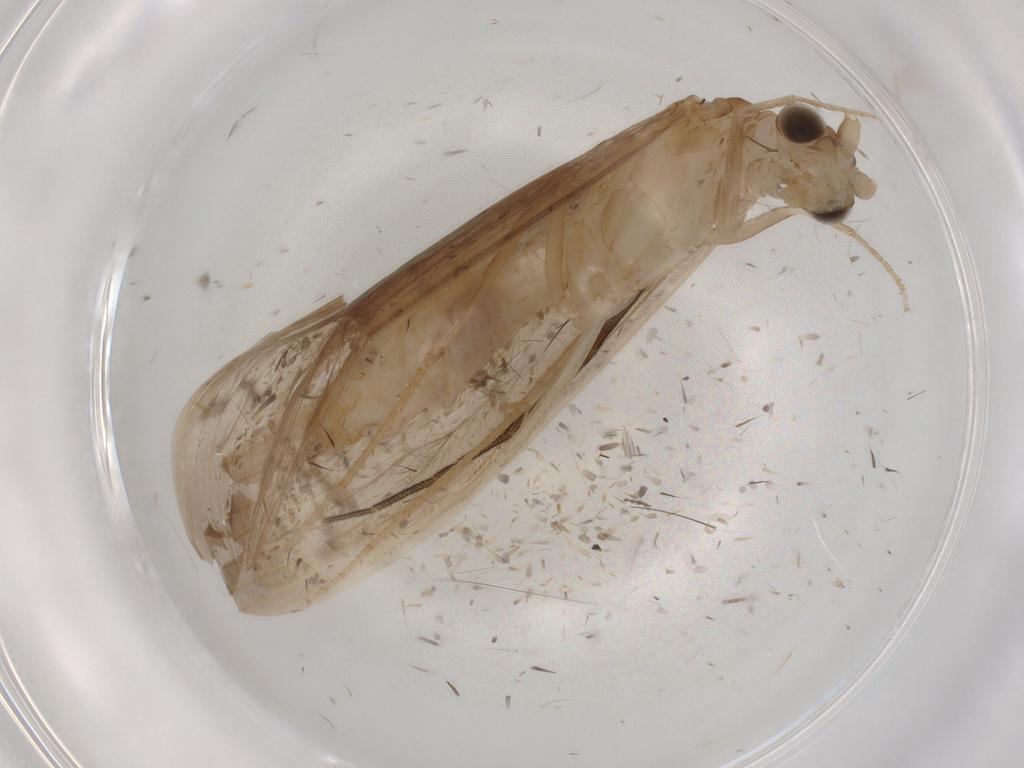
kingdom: Animalia
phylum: Arthropoda
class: Insecta
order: Trichoptera
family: Leptoceridae
